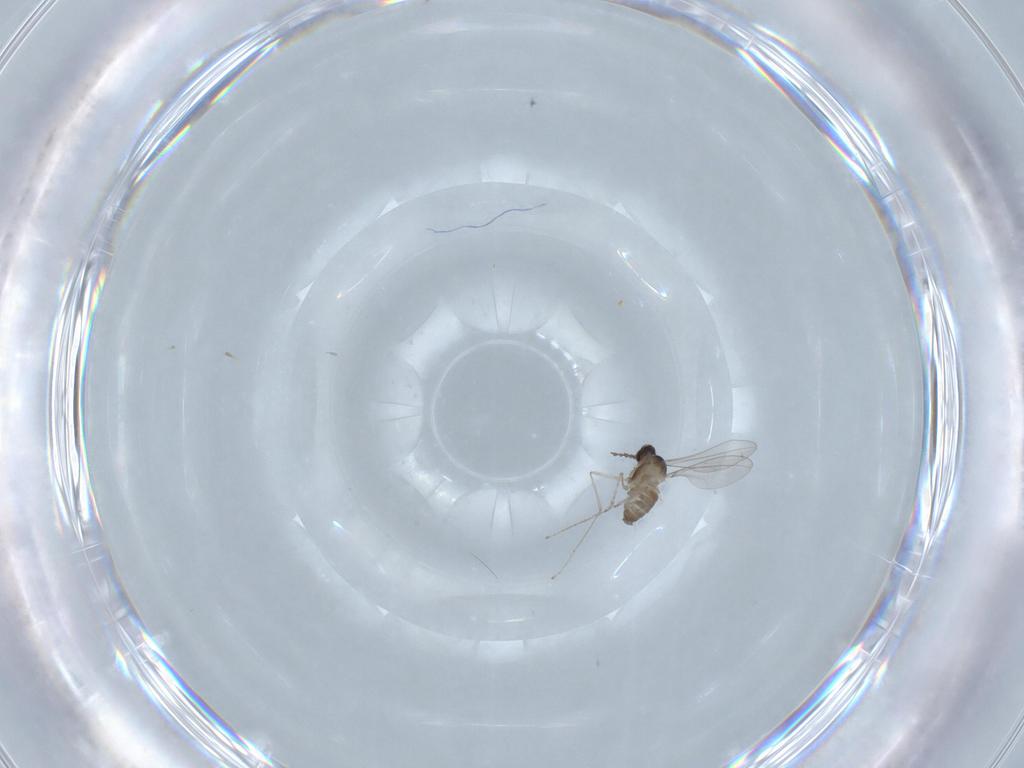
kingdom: Animalia
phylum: Arthropoda
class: Insecta
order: Diptera
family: Cecidomyiidae
